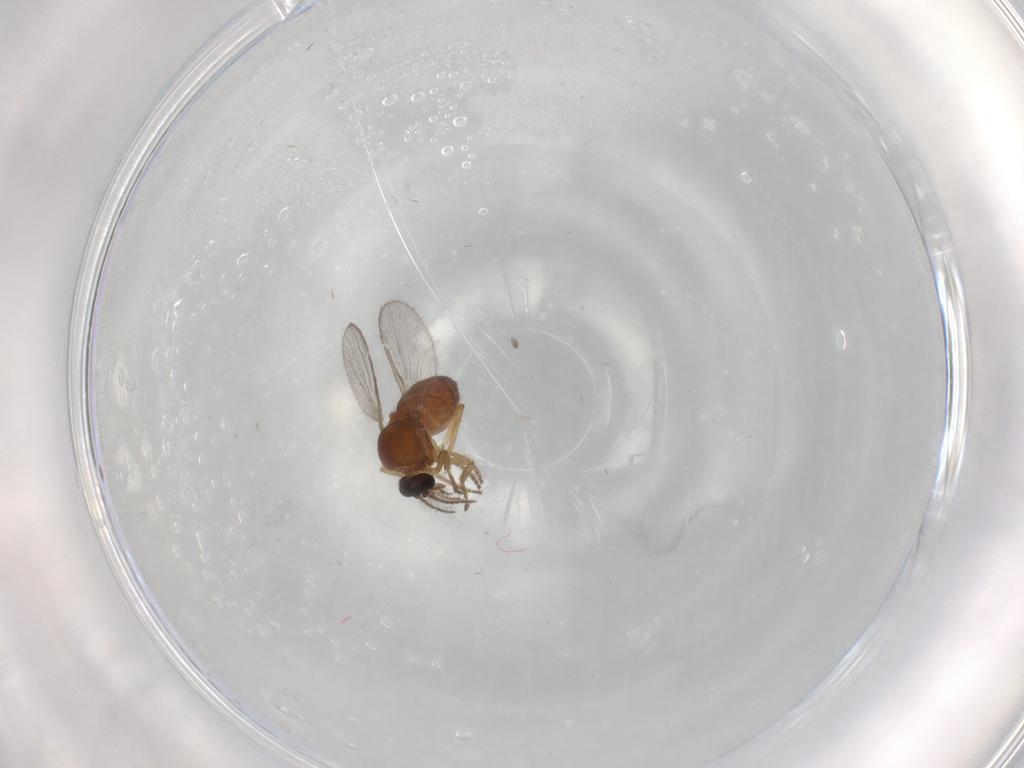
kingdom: Animalia
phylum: Arthropoda
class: Insecta
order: Diptera
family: Ceratopogonidae
